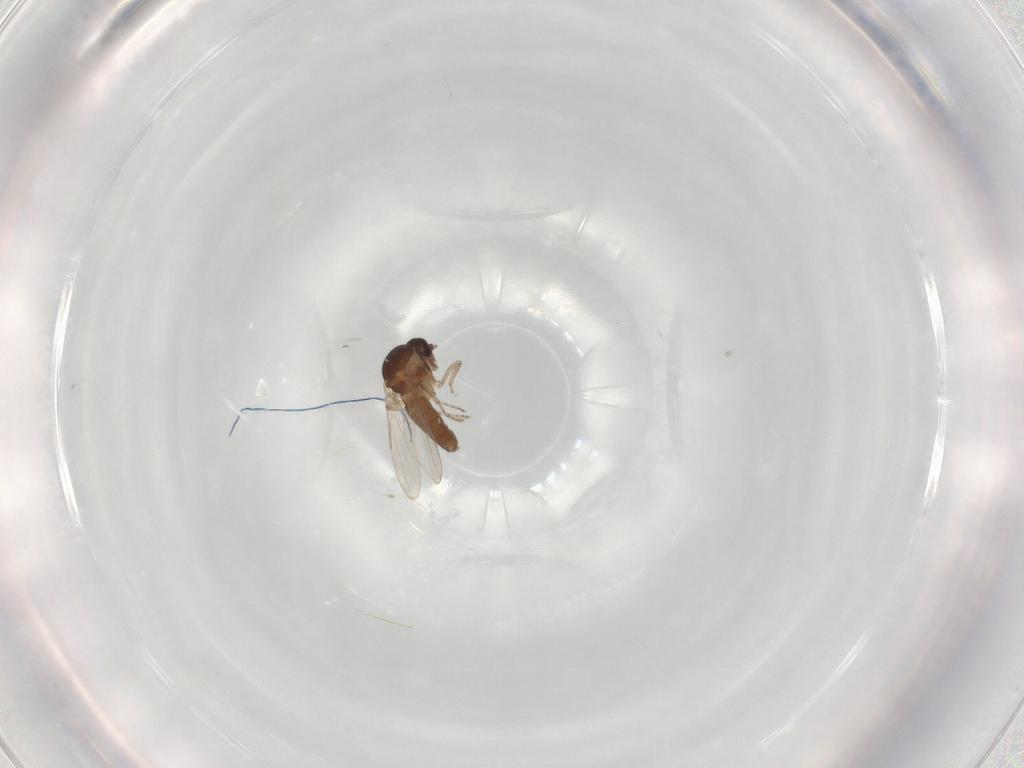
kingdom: Animalia
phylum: Arthropoda
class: Insecta
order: Diptera
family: Ceratopogonidae
